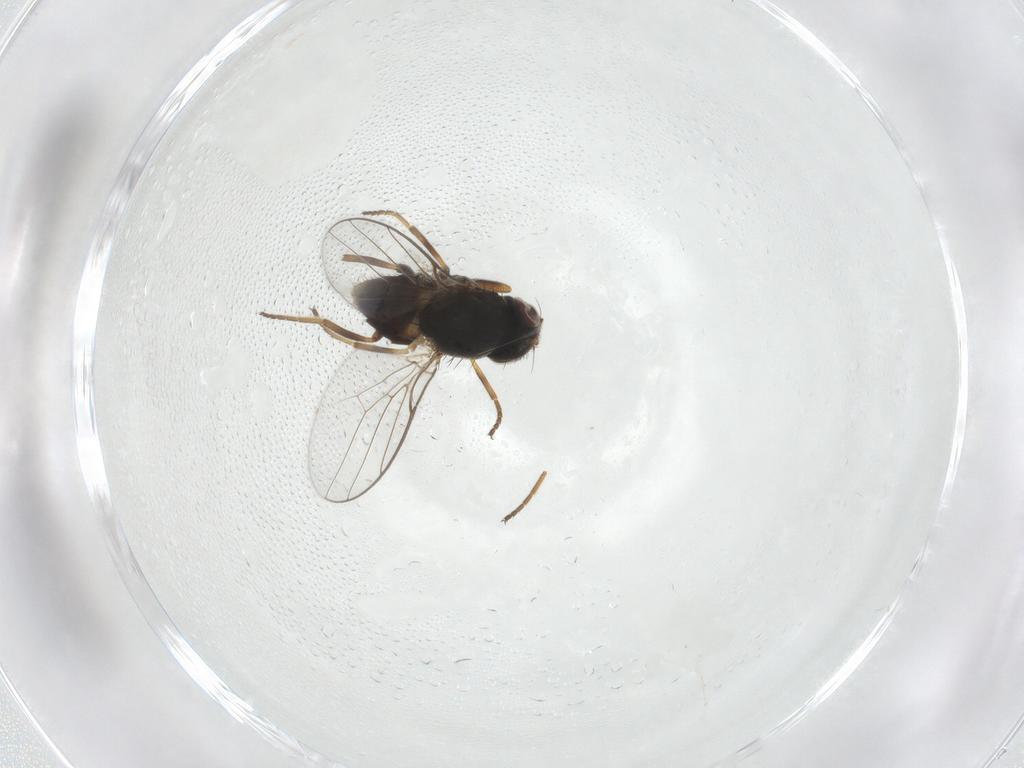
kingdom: Animalia
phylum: Arthropoda
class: Insecta
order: Diptera
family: Chloropidae
